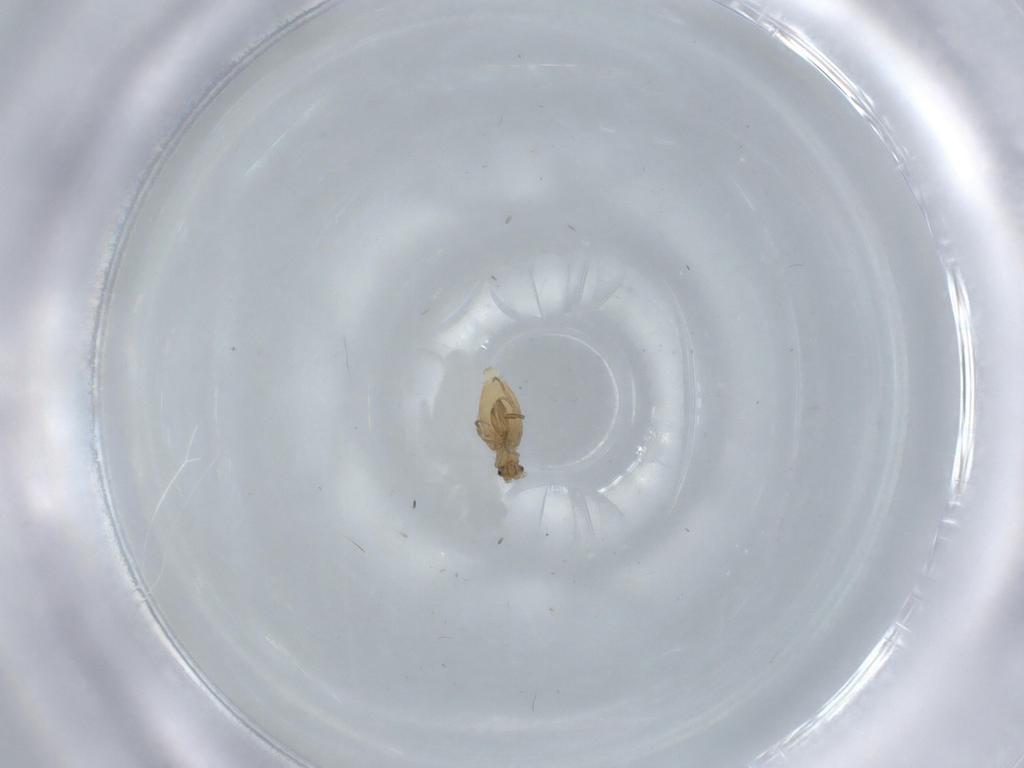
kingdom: Animalia
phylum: Arthropoda
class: Insecta
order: Diptera
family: Phoridae
